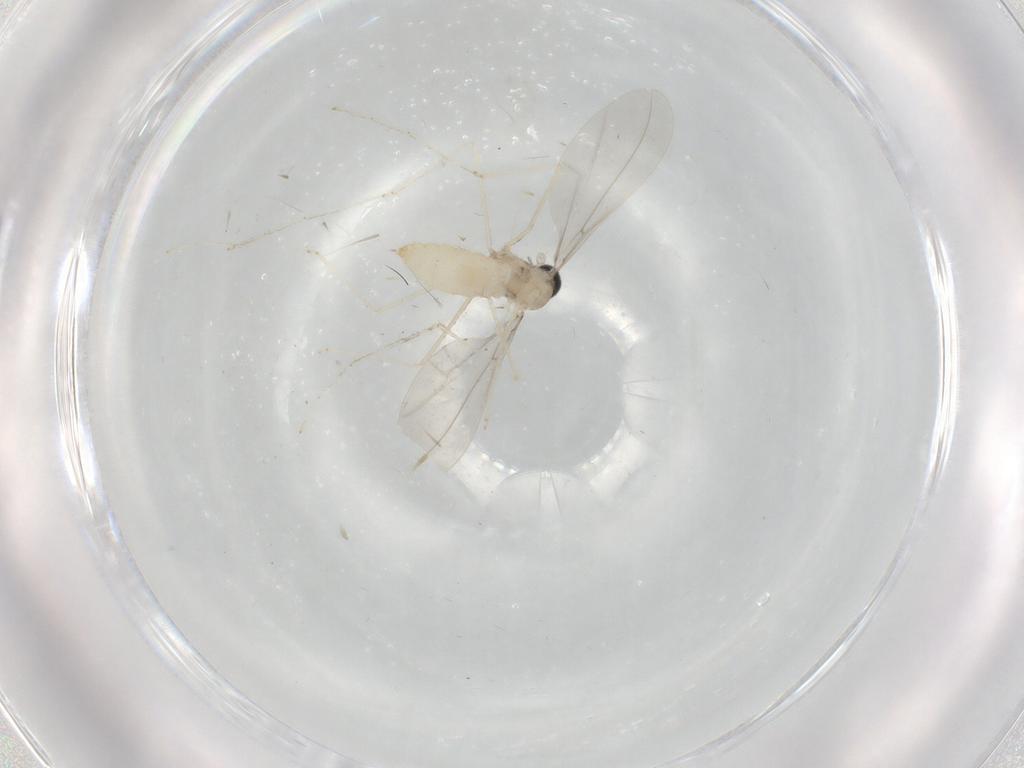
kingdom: Animalia
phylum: Arthropoda
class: Insecta
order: Diptera
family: Cecidomyiidae
